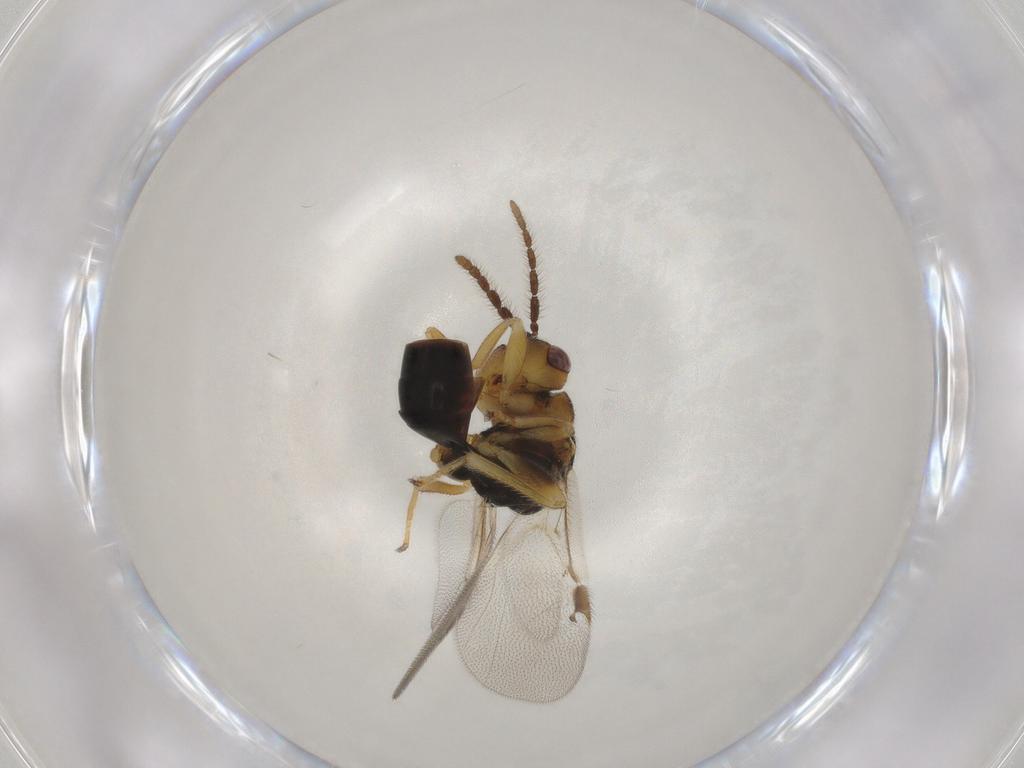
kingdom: Animalia
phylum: Arthropoda
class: Insecta
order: Hymenoptera
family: Eurytomidae
